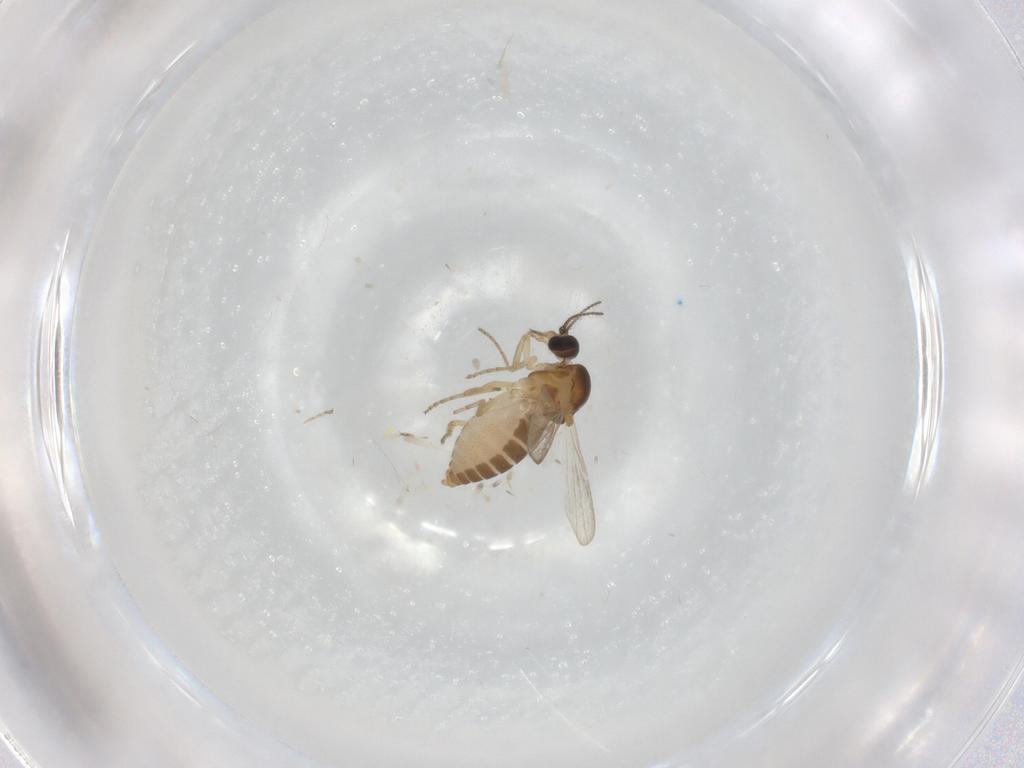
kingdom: Animalia
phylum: Arthropoda
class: Insecta
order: Diptera
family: Ceratopogonidae
